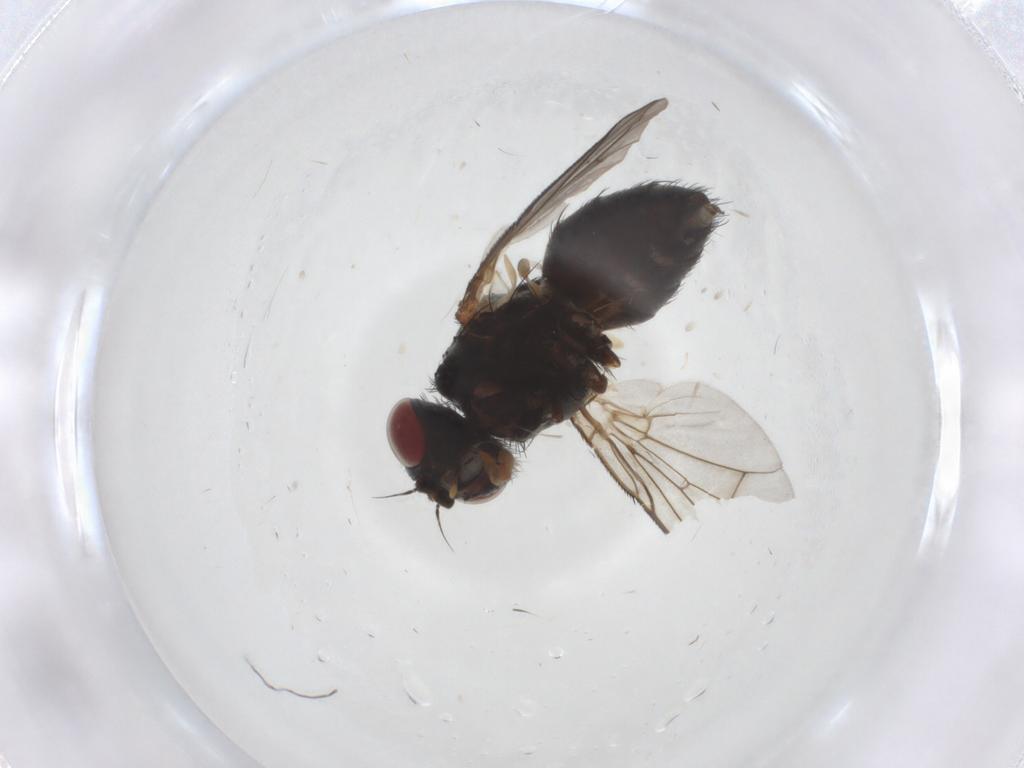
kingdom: Animalia
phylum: Arthropoda
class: Insecta
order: Diptera
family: Calliphoridae
